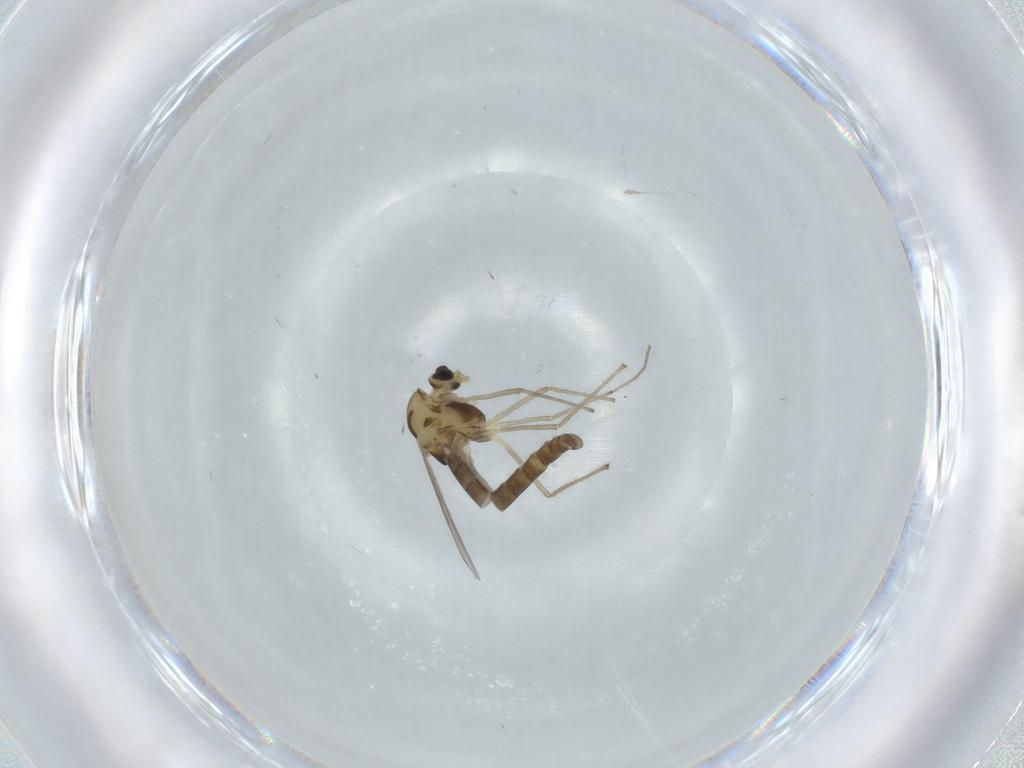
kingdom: Animalia
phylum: Arthropoda
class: Insecta
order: Diptera
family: Chironomidae
